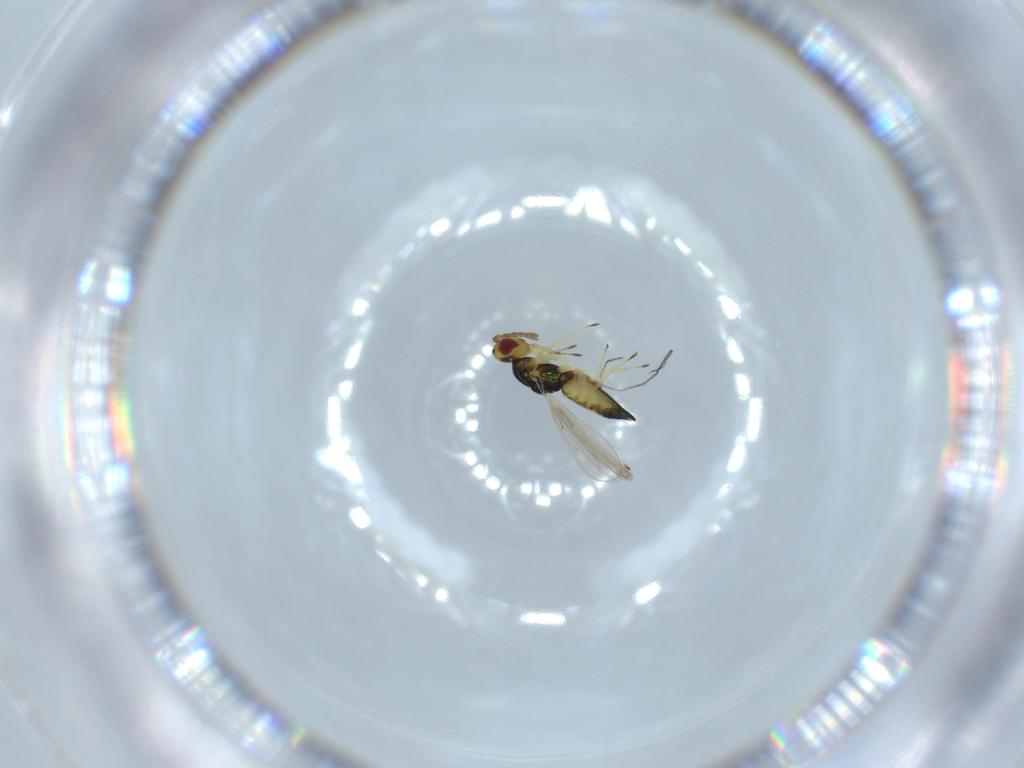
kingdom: Animalia
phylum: Arthropoda
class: Insecta
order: Hymenoptera
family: Eulophidae
